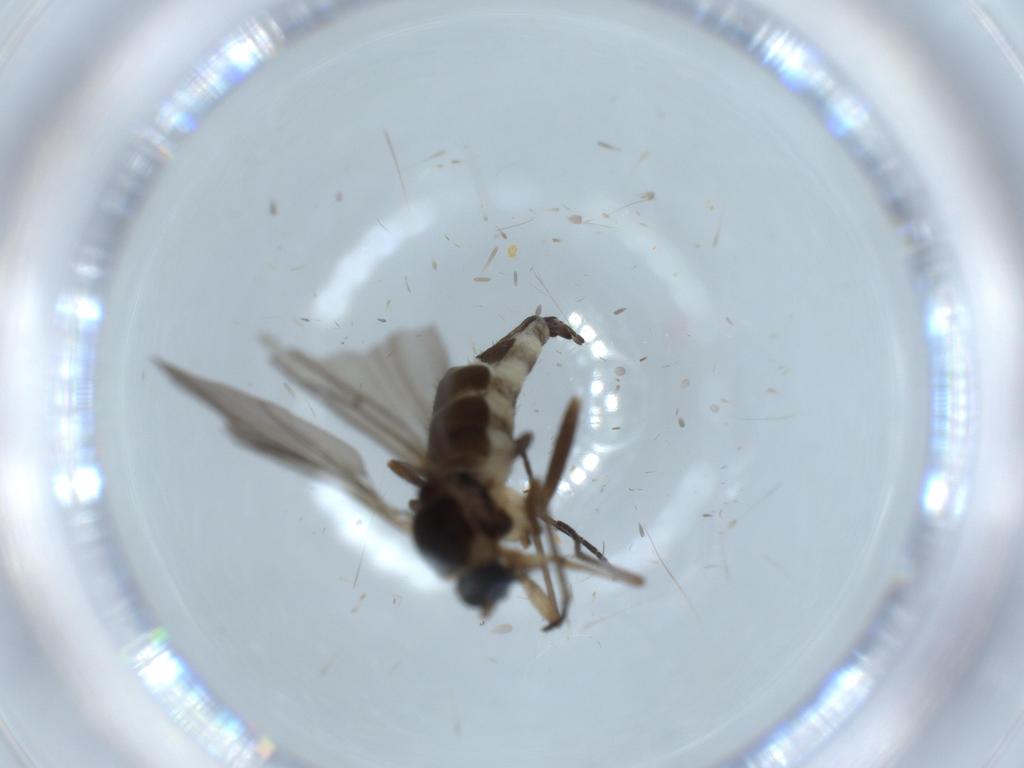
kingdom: Animalia
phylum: Arthropoda
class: Insecta
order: Diptera
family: Sciaridae
